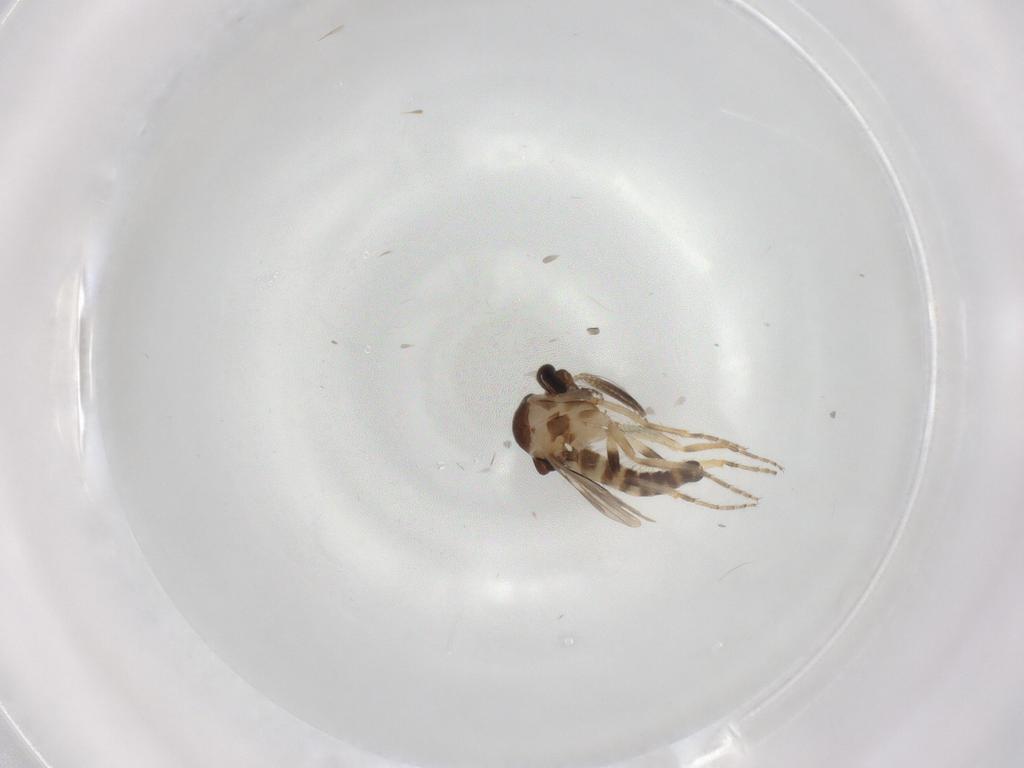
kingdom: Animalia
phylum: Arthropoda
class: Insecta
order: Diptera
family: Ceratopogonidae
